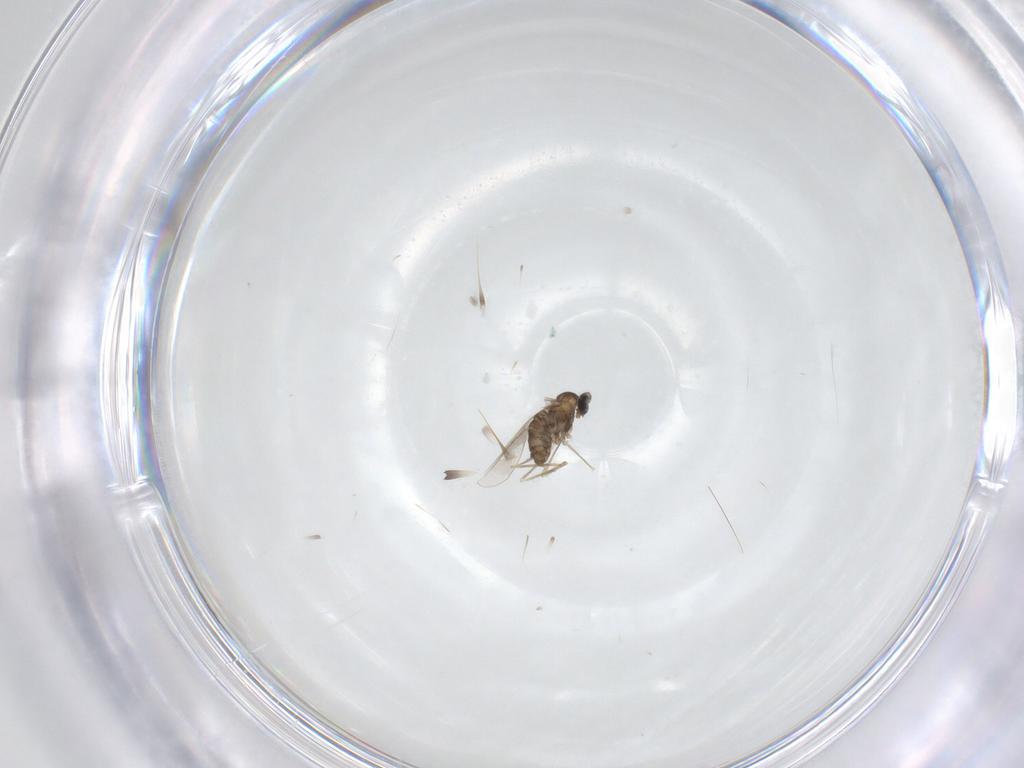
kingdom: Animalia
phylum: Arthropoda
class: Insecta
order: Diptera
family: Cecidomyiidae
